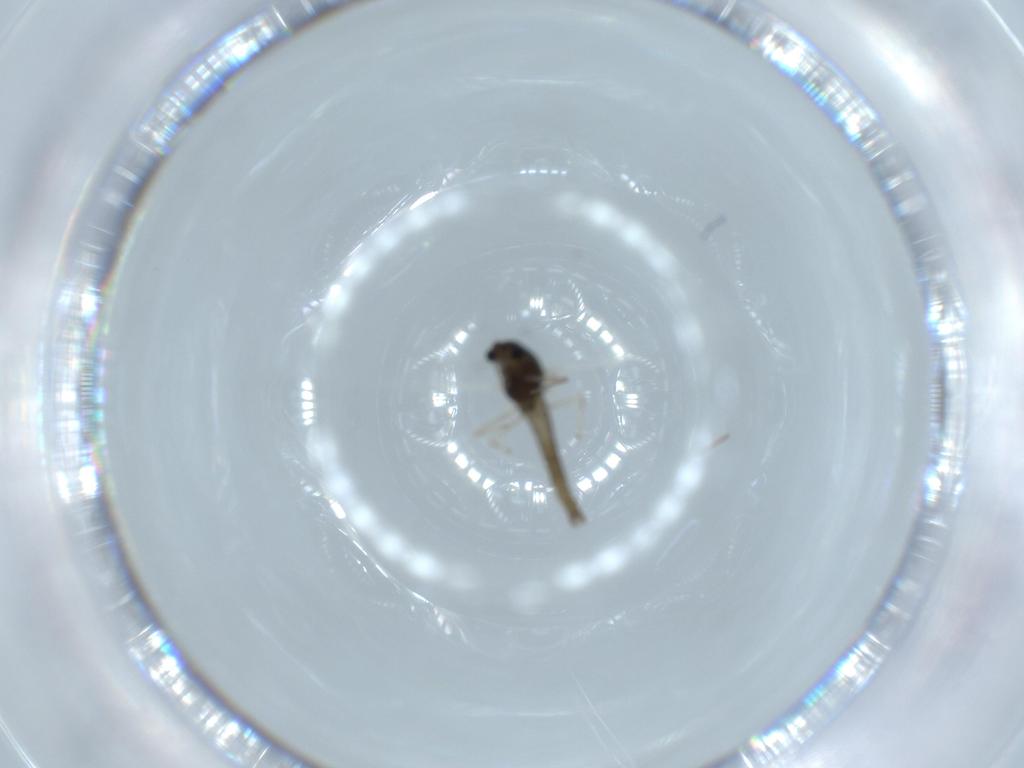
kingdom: Animalia
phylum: Arthropoda
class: Insecta
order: Diptera
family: Chironomidae
